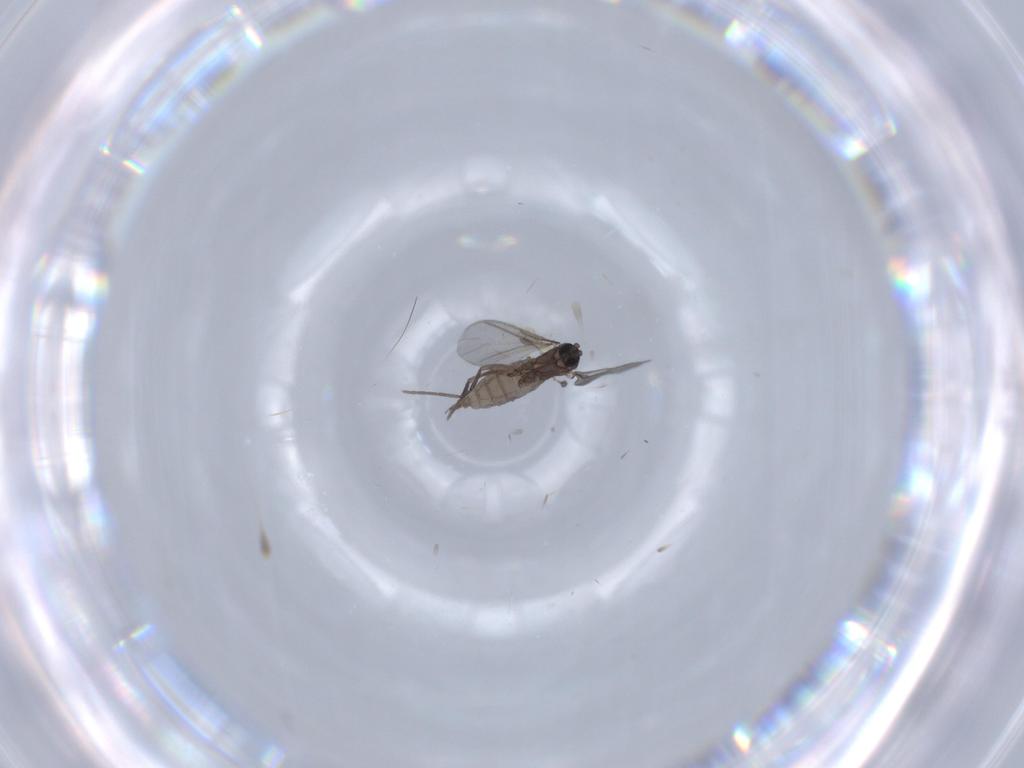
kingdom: Animalia
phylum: Arthropoda
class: Insecta
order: Diptera
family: Sciaridae
